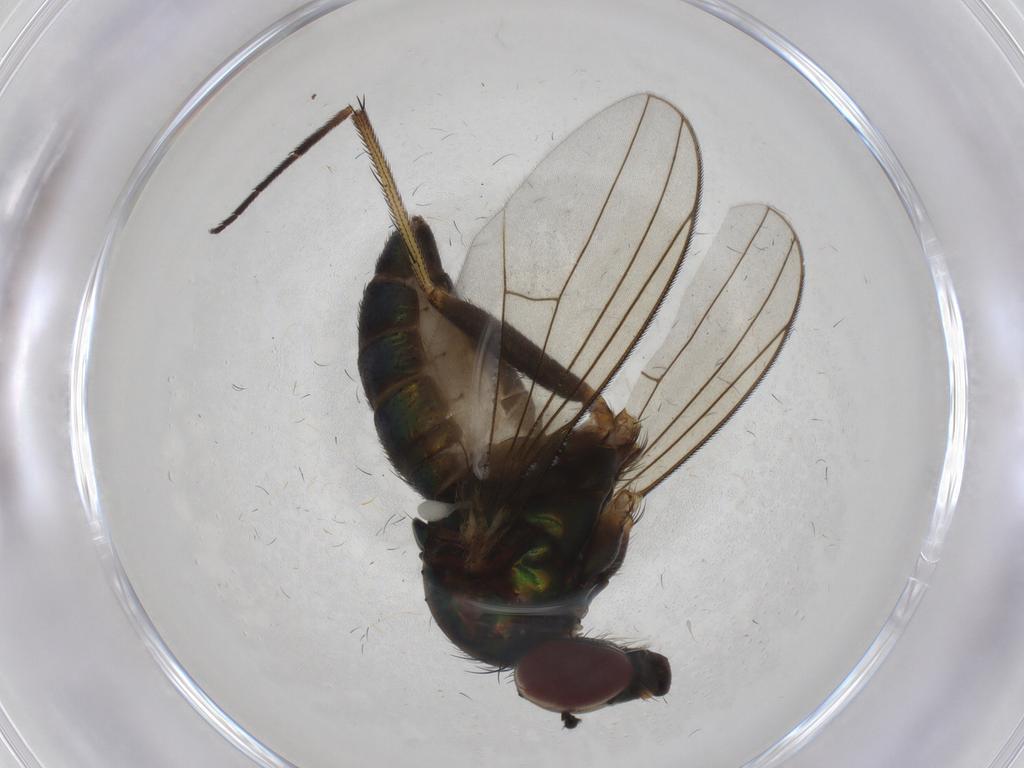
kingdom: Animalia
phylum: Arthropoda
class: Insecta
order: Diptera
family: Dolichopodidae
